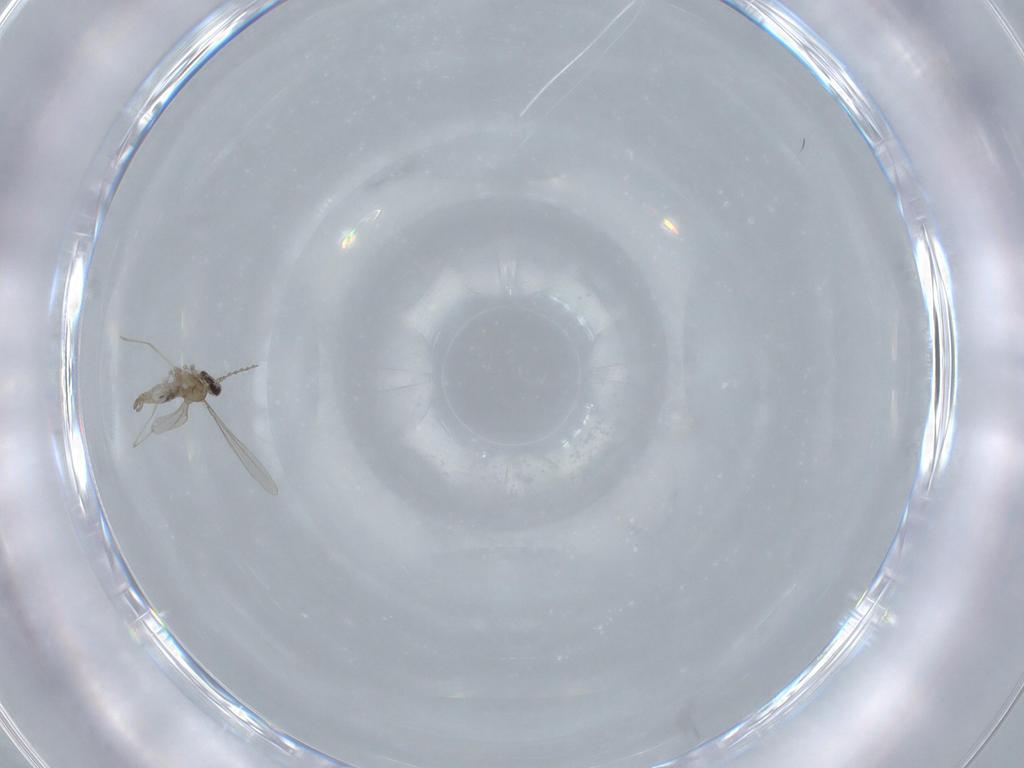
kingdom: Animalia
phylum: Arthropoda
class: Insecta
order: Diptera
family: Cecidomyiidae
